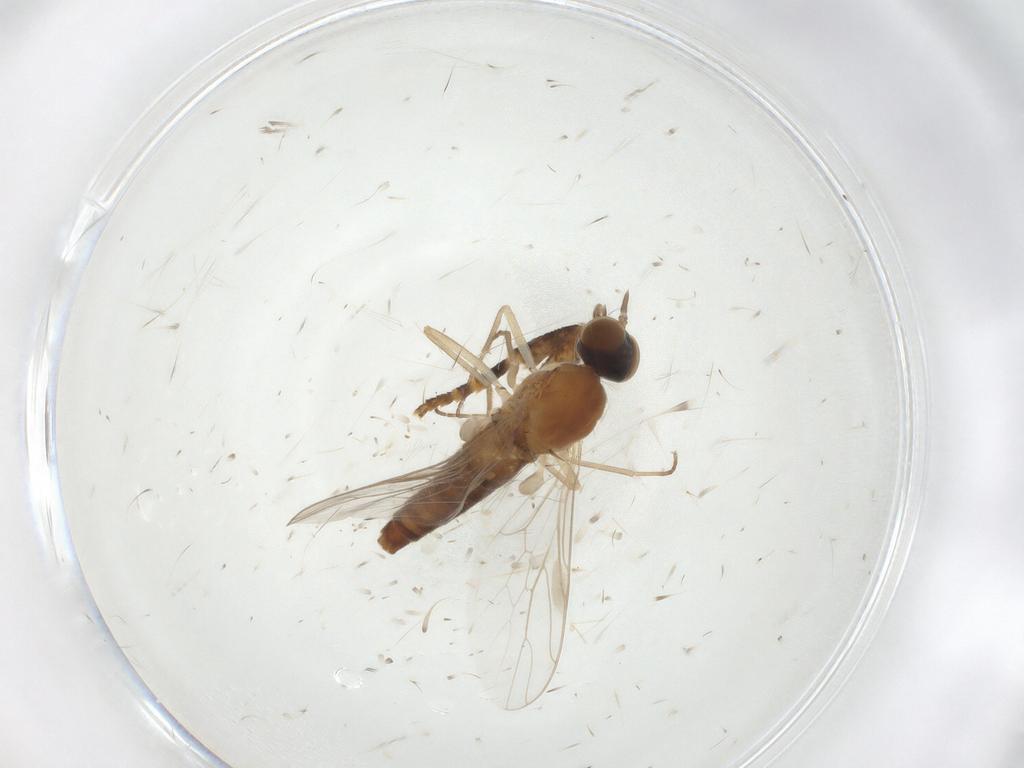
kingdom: Animalia
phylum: Arthropoda
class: Insecta
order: Diptera
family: Scenopinidae
